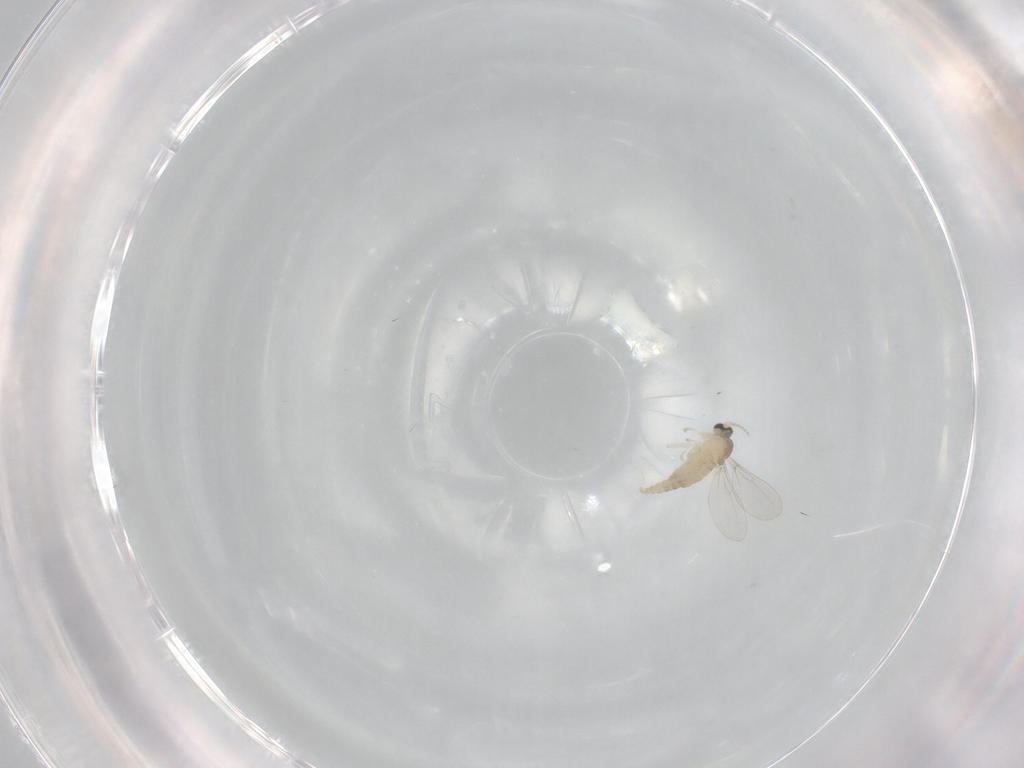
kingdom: Animalia
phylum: Arthropoda
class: Insecta
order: Diptera
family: Cecidomyiidae
